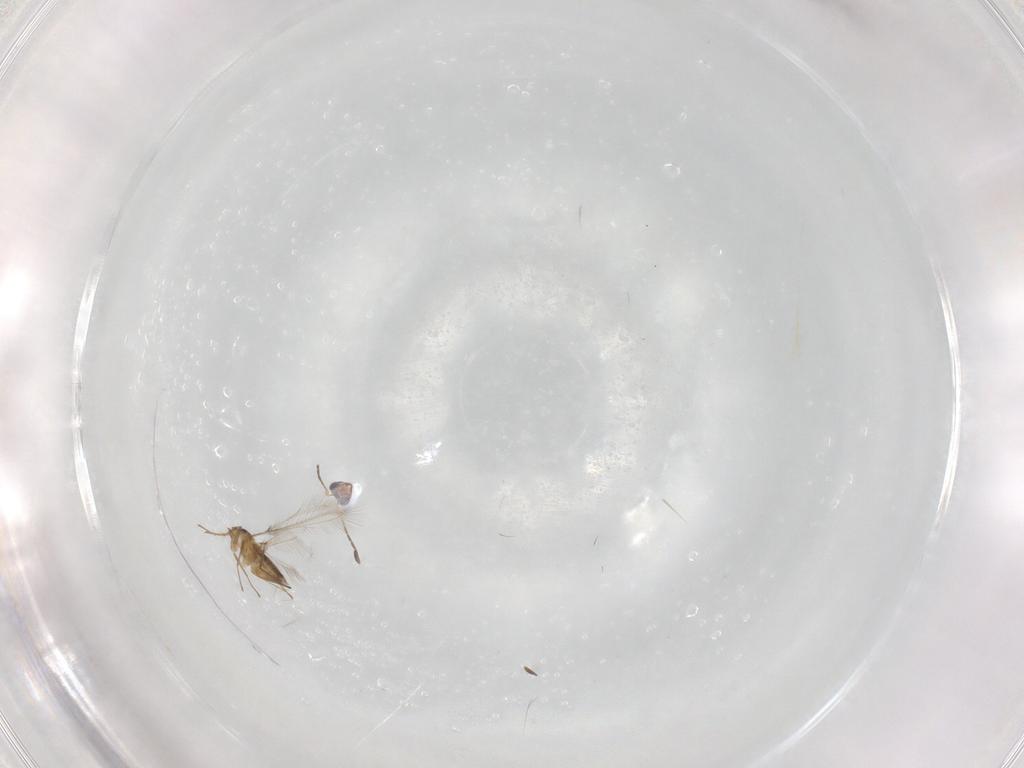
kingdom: Animalia
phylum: Arthropoda
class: Insecta
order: Hymenoptera
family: Mymaridae
